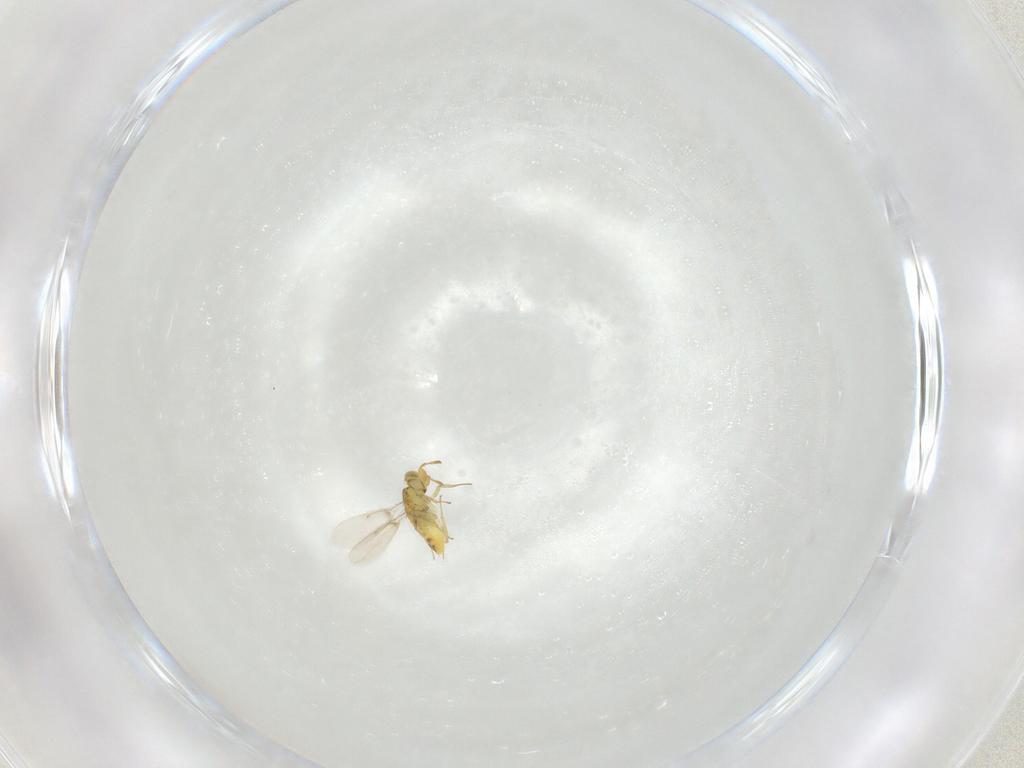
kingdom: Animalia
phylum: Arthropoda
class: Insecta
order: Hymenoptera
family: Aphelinidae
